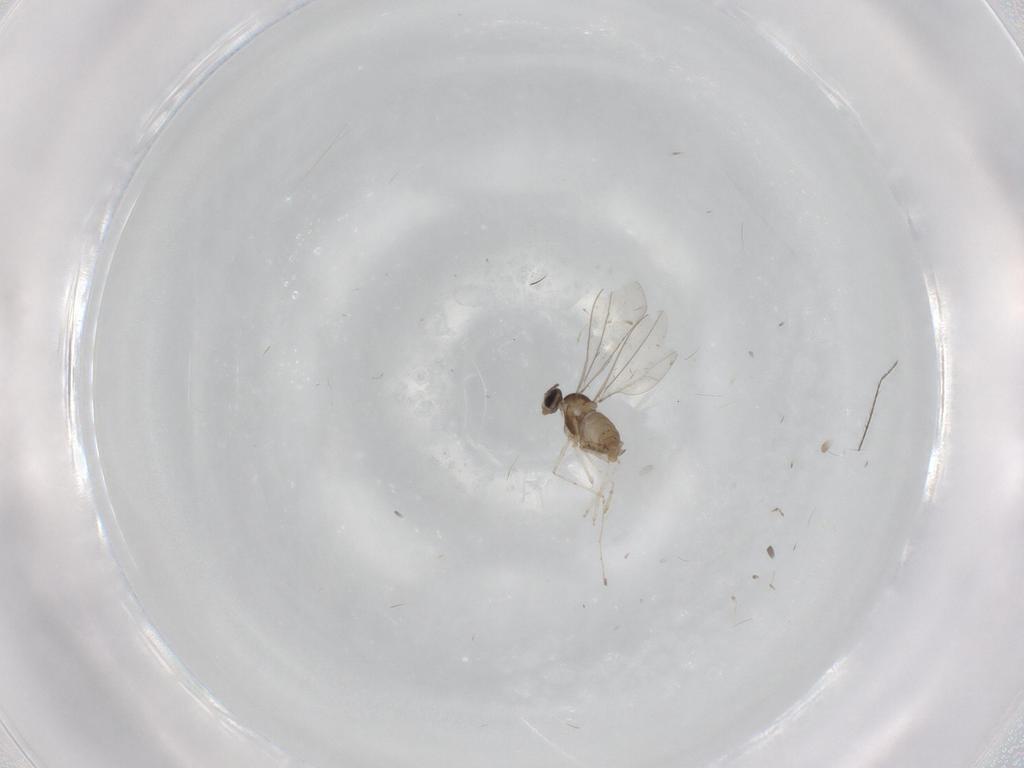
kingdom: Animalia
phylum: Arthropoda
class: Insecta
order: Diptera
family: Cecidomyiidae
